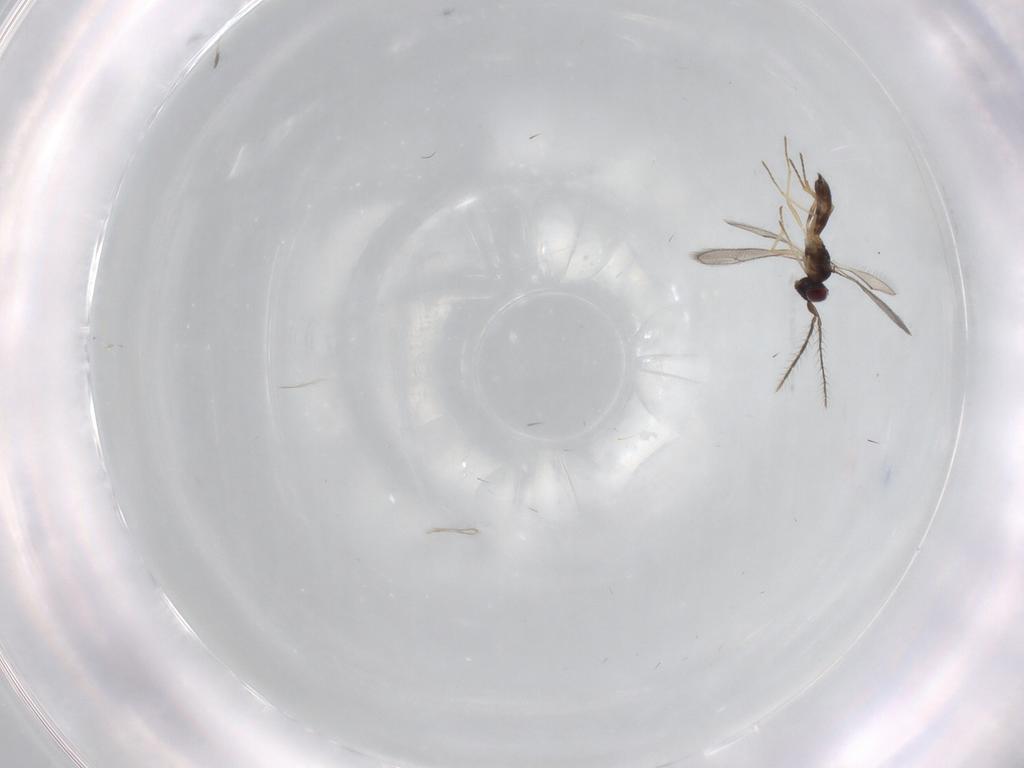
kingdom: Animalia
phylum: Arthropoda
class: Insecta
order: Hymenoptera
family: Eulophidae
